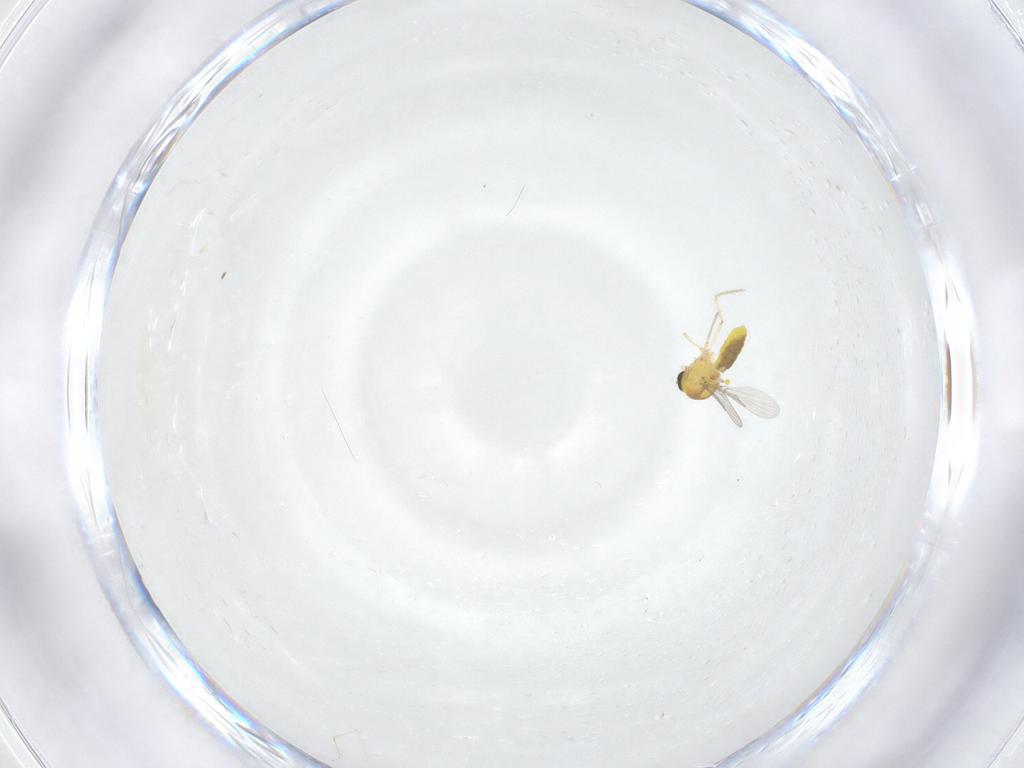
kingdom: Animalia
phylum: Arthropoda
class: Insecta
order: Diptera
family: Cecidomyiidae
